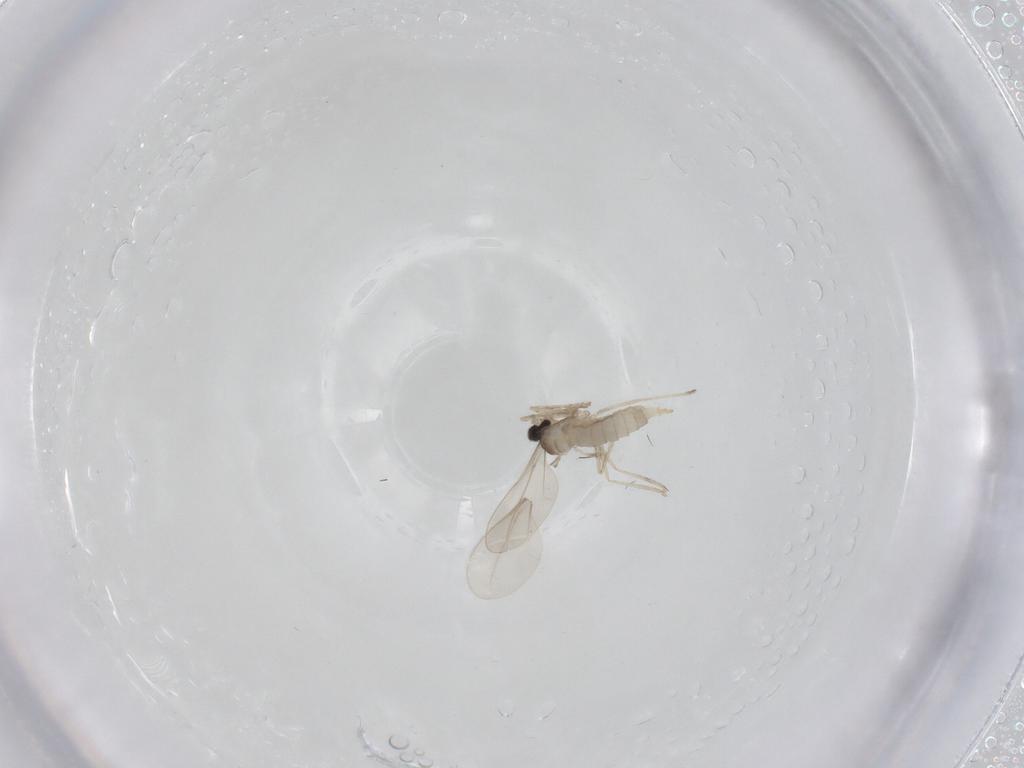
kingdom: Animalia
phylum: Arthropoda
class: Insecta
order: Diptera
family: Cecidomyiidae
